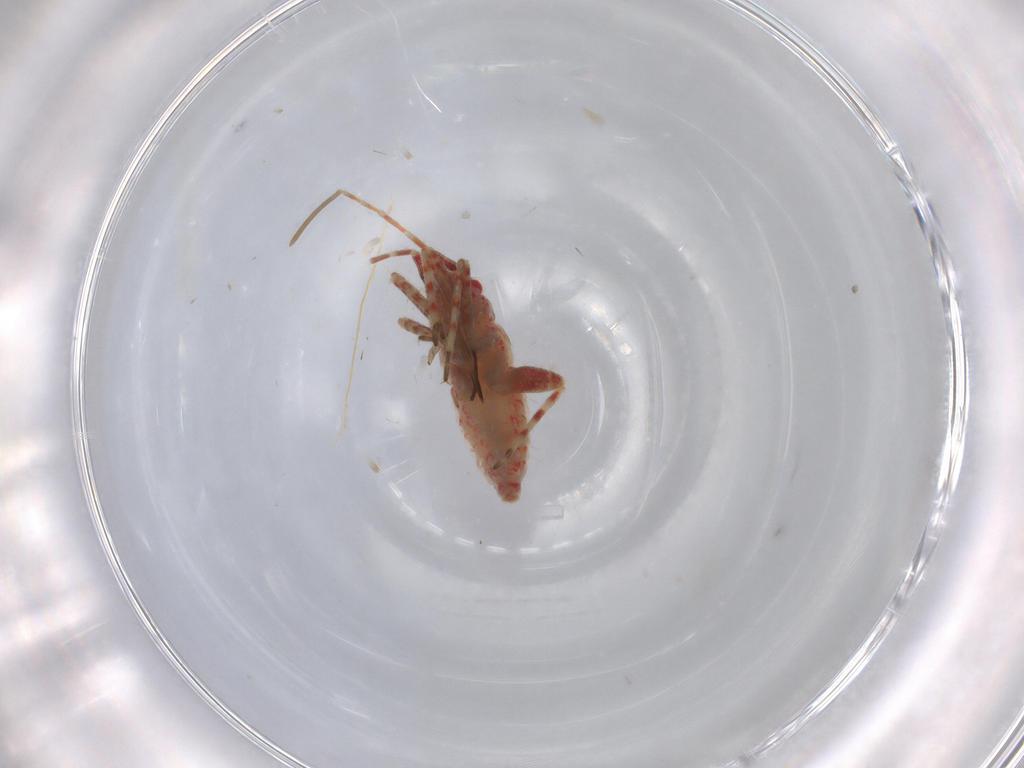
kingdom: Animalia
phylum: Arthropoda
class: Insecta
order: Hemiptera
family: Miridae
